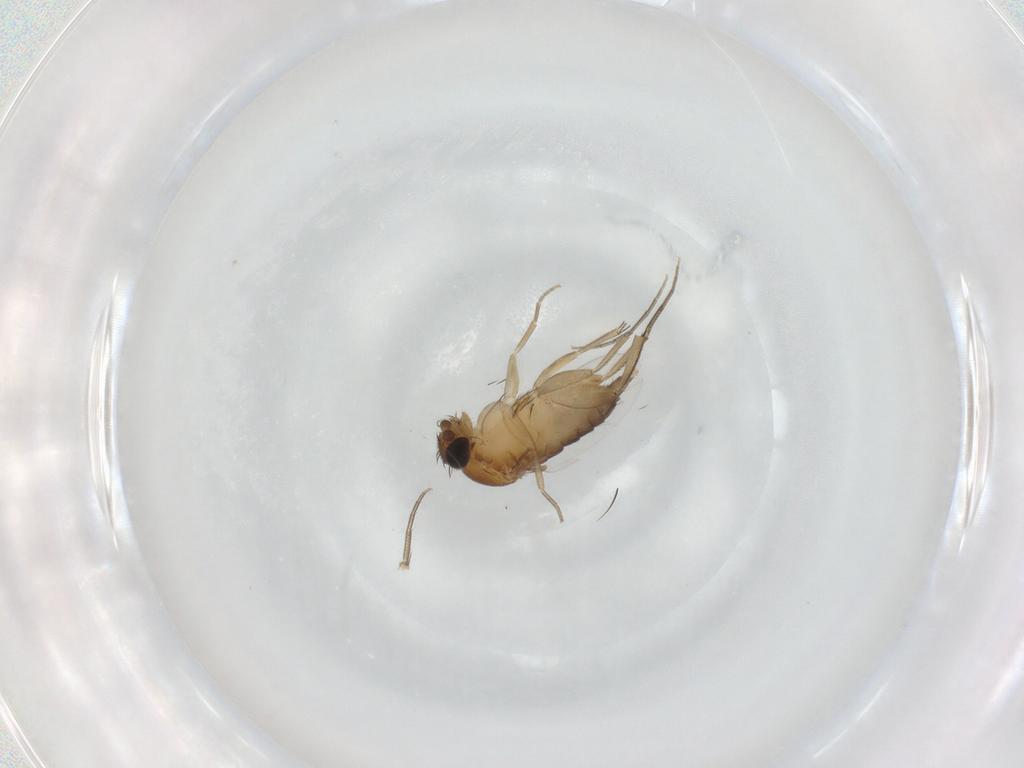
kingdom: Animalia
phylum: Arthropoda
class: Insecta
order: Diptera
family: Phoridae
